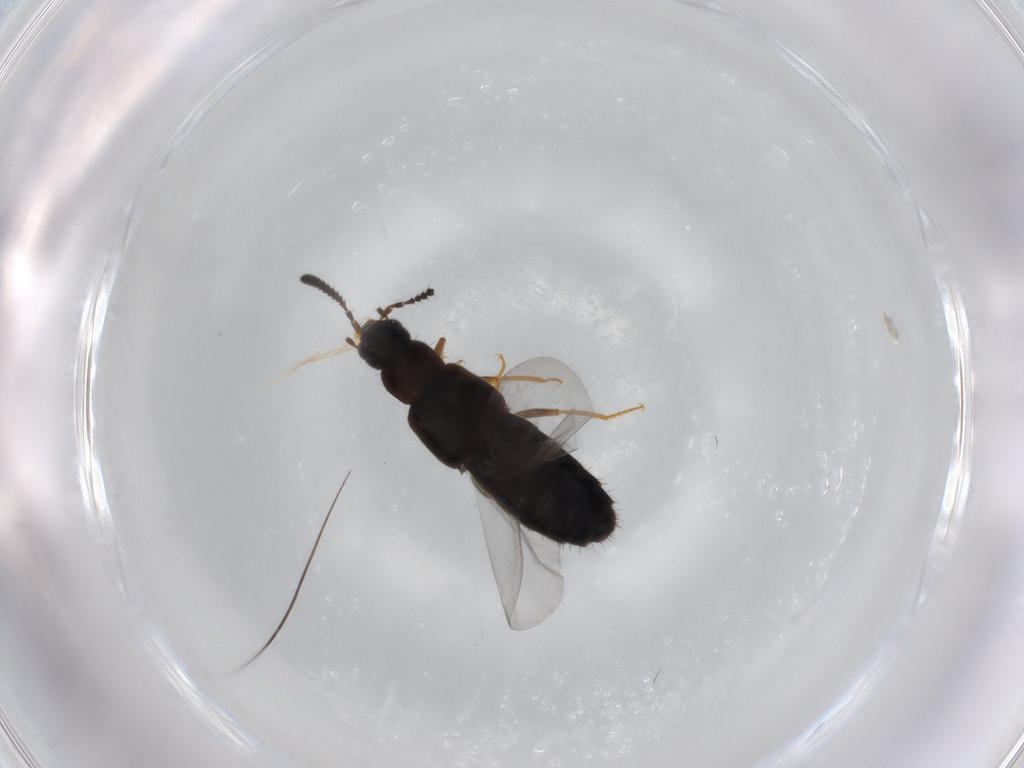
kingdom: Animalia
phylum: Arthropoda
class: Insecta
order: Coleoptera
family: Staphylinidae
